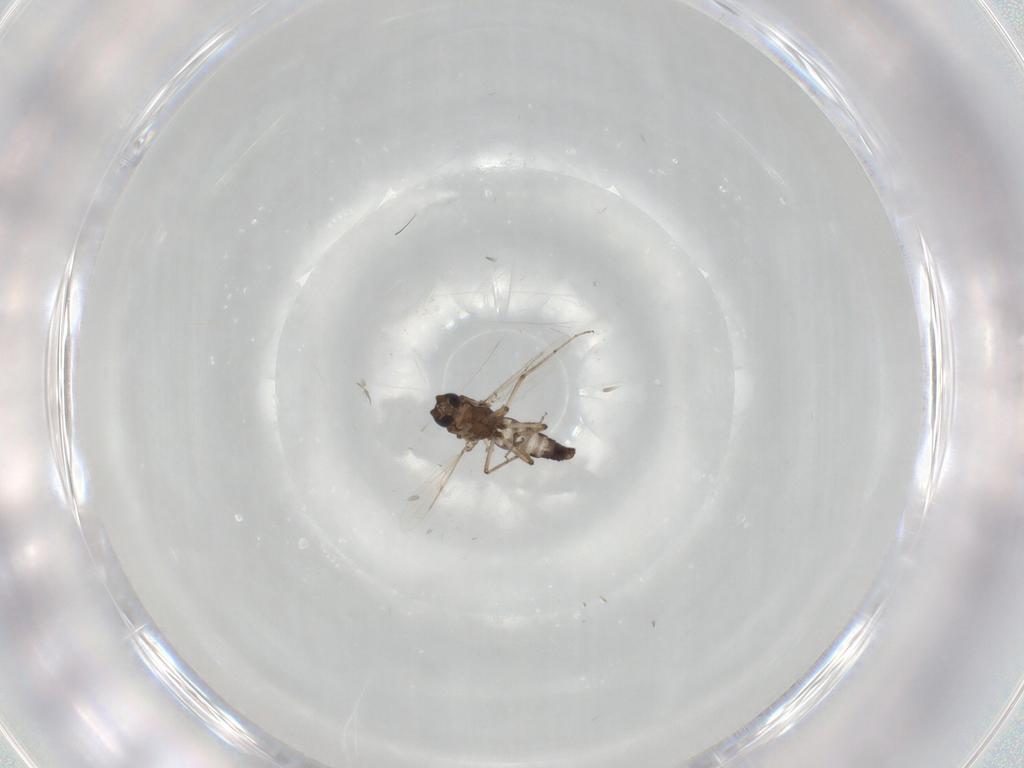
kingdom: Animalia
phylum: Arthropoda
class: Insecta
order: Diptera
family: Ceratopogonidae
